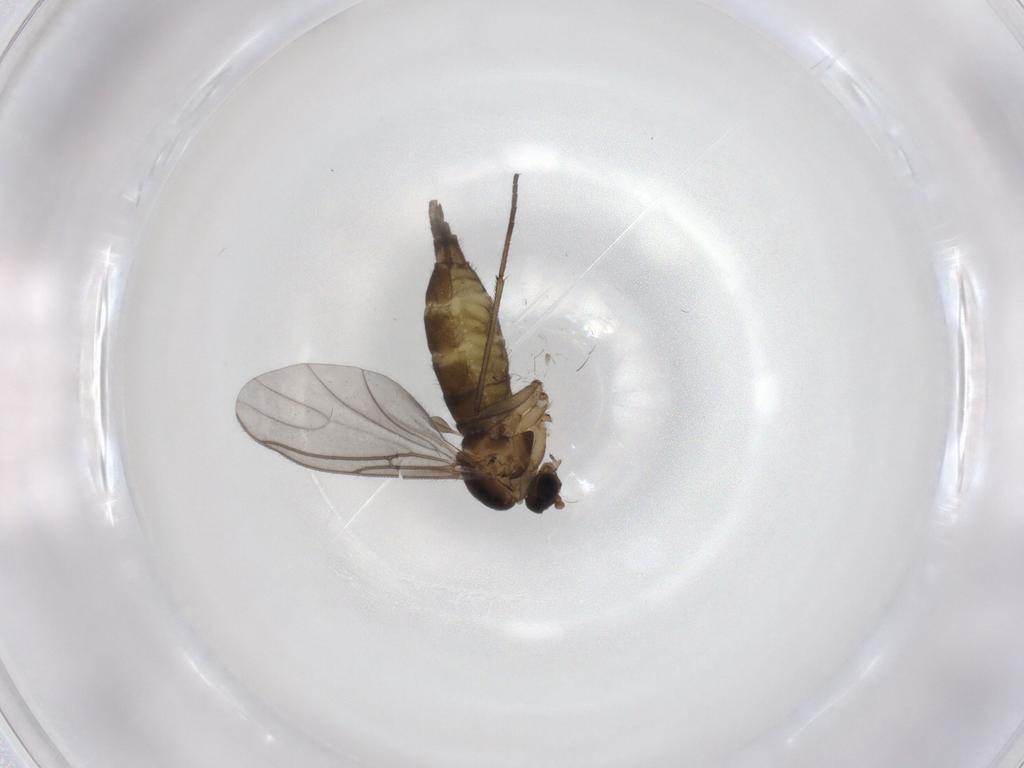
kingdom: Animalia
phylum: Arthropoda
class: Insecta
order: Diptera
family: Cecidomyiidae
